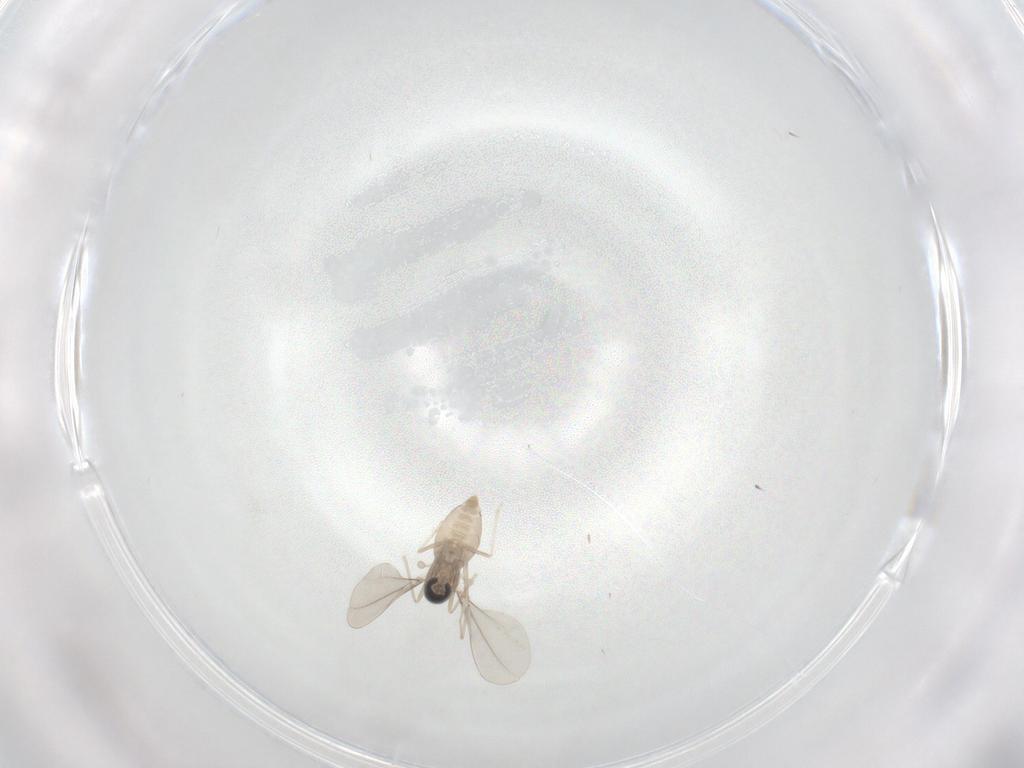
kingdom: Animalia
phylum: Arthropoda
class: Insecta
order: Diptera
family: Cecidomyiidae
